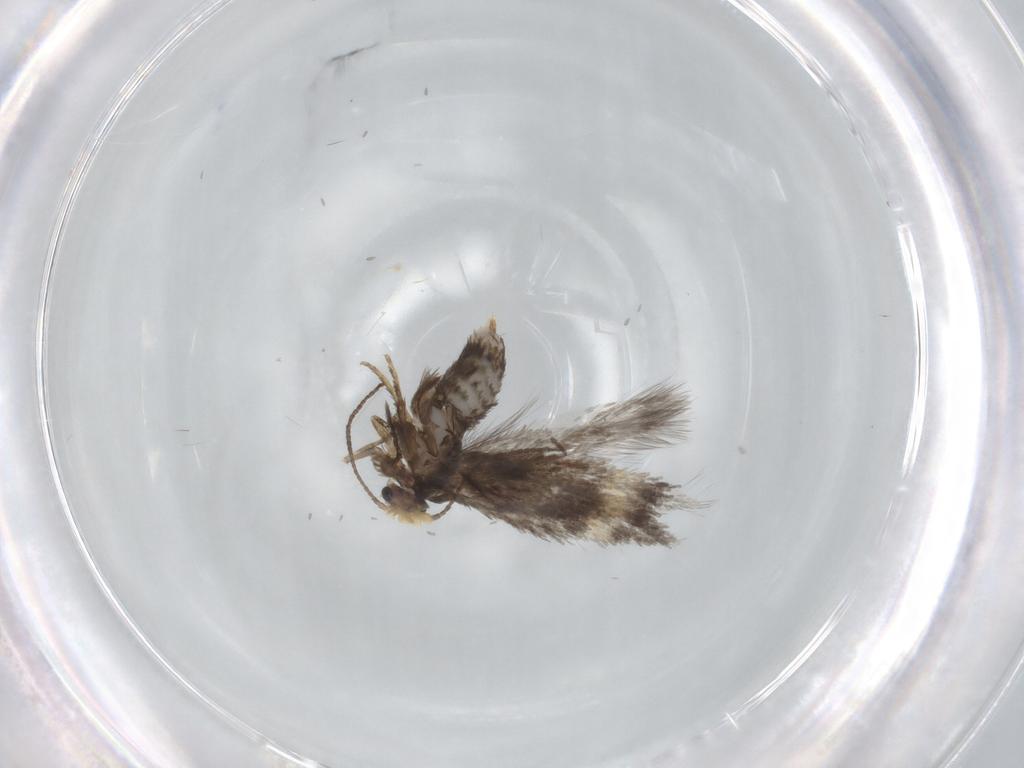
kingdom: Animalia
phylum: Arthropoda
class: Insecta
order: Lepidoptera
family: Nepticulidae
